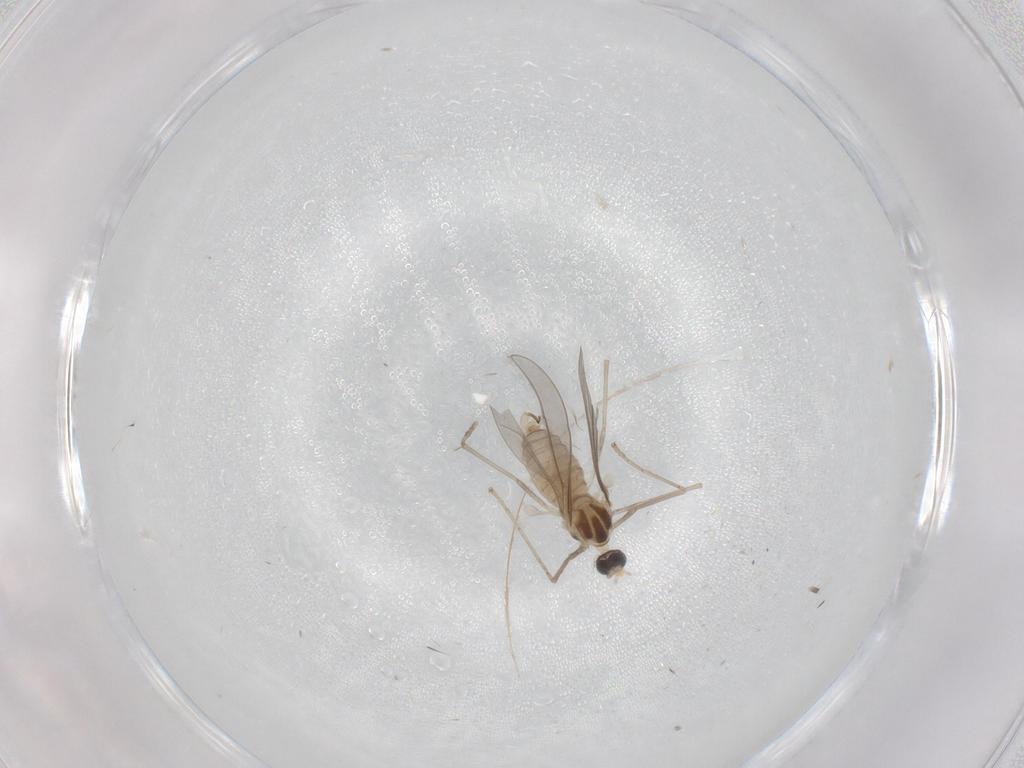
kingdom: Animalia
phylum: Arthropoda
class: Insecta
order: Diptera
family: Cecidomyiidae
